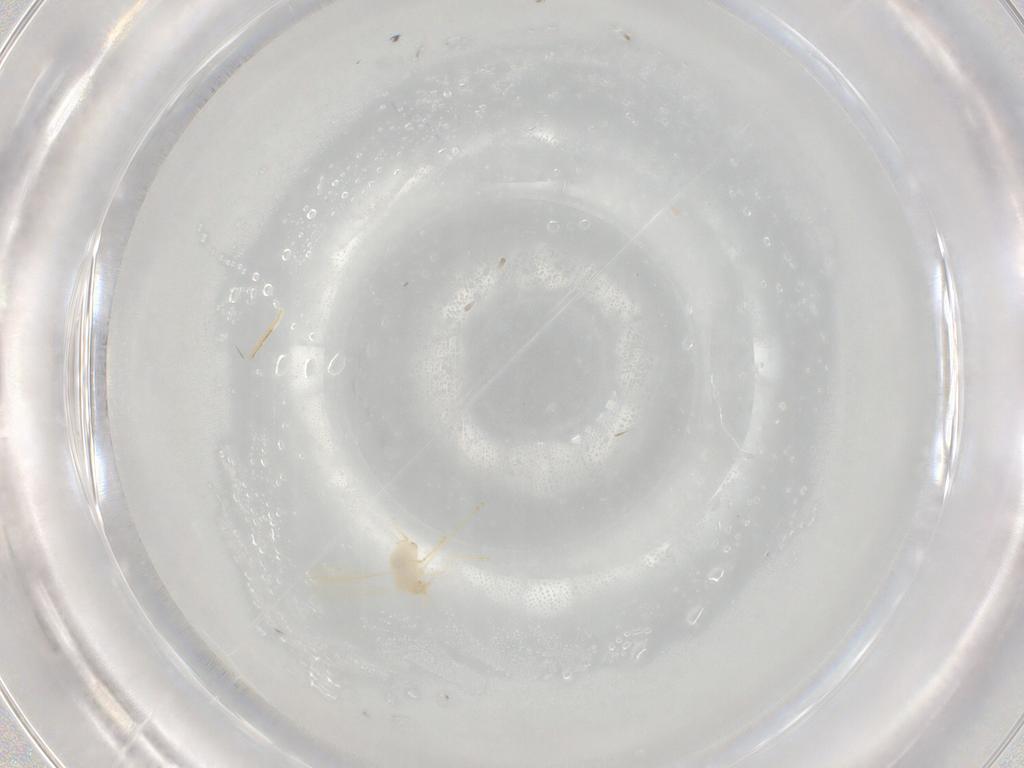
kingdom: Animalia
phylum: Arthropoda
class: Insecta
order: Diptera
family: Cecidomyiidae
